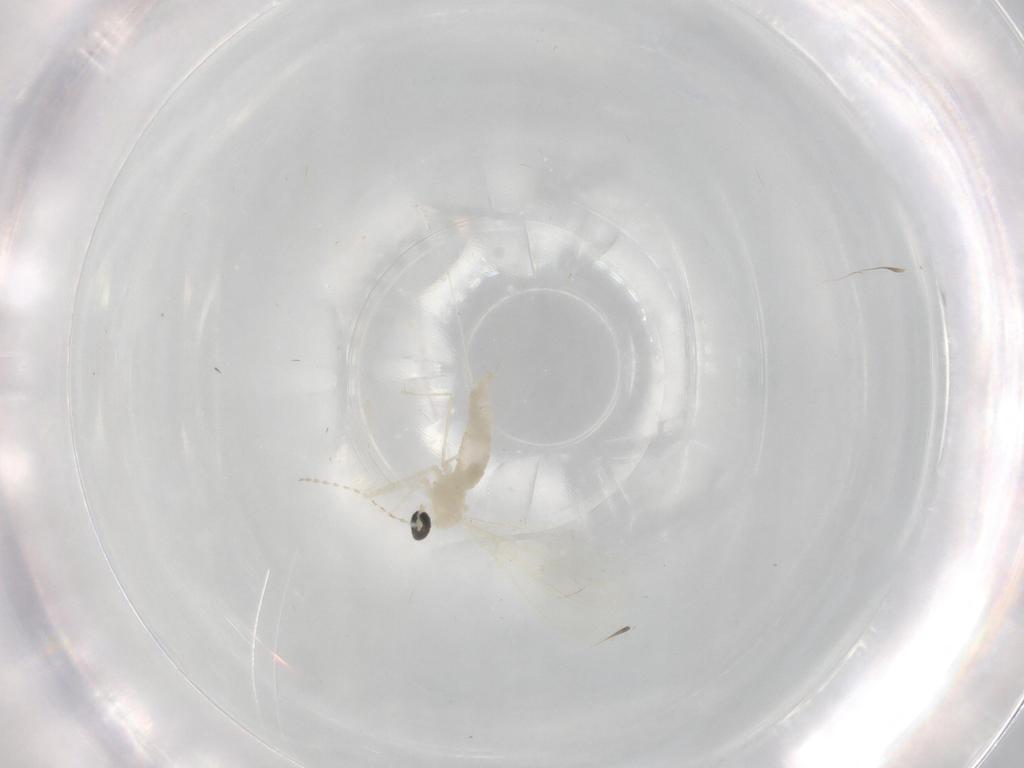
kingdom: Animalia
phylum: Arthropoda
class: Insecta
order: Diptera
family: Cecidomyiidae
